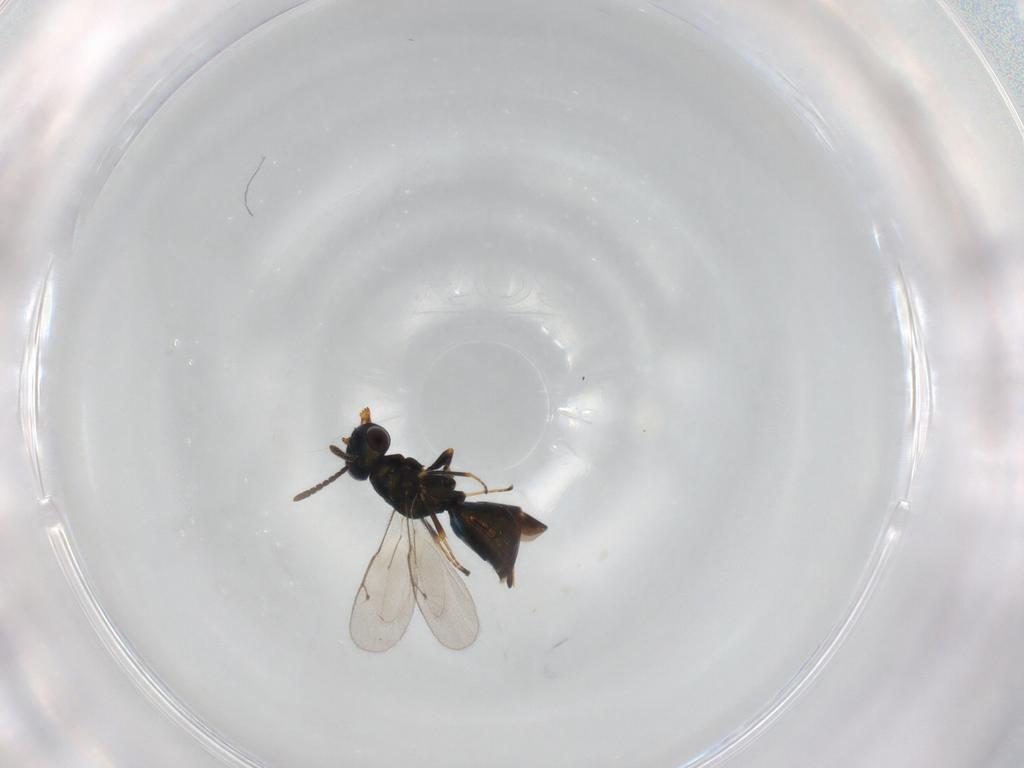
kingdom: Animalia
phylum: Arthropoda
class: Insecta
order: Hymenoptera
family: Pteromalidae
